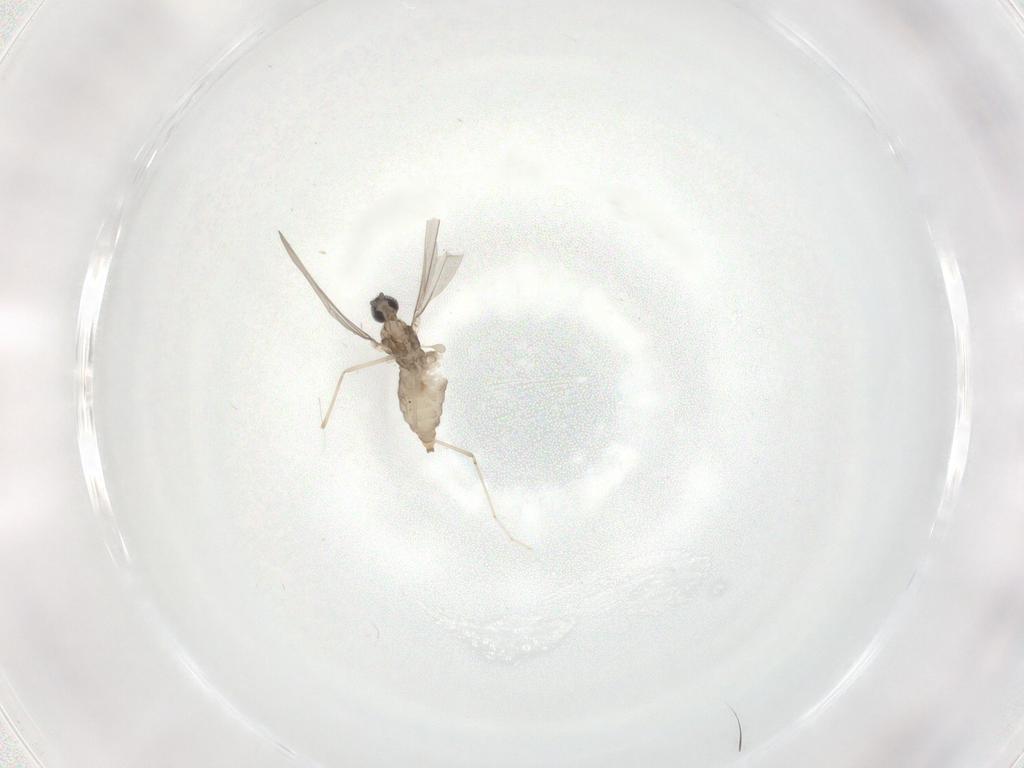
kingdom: Animalia
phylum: Arthropoda
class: Insecta
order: Diptera
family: Dolichopodidae
